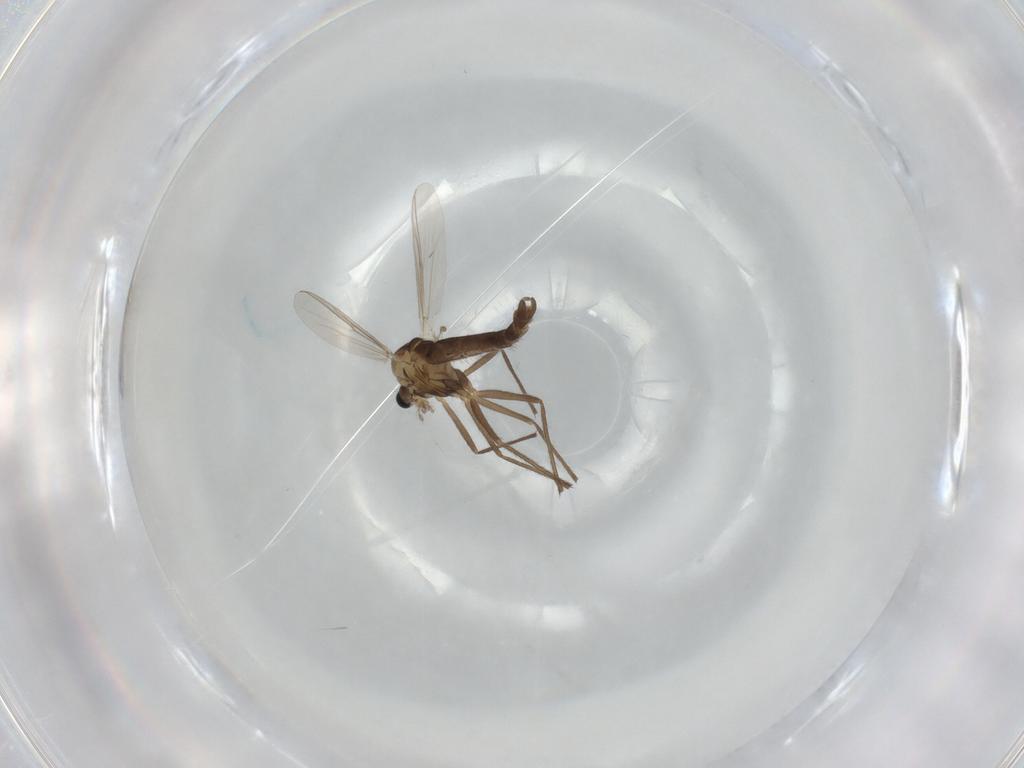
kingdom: Animalia
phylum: Arthropoda
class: Insecta
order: Diptera
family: Chironomidae
